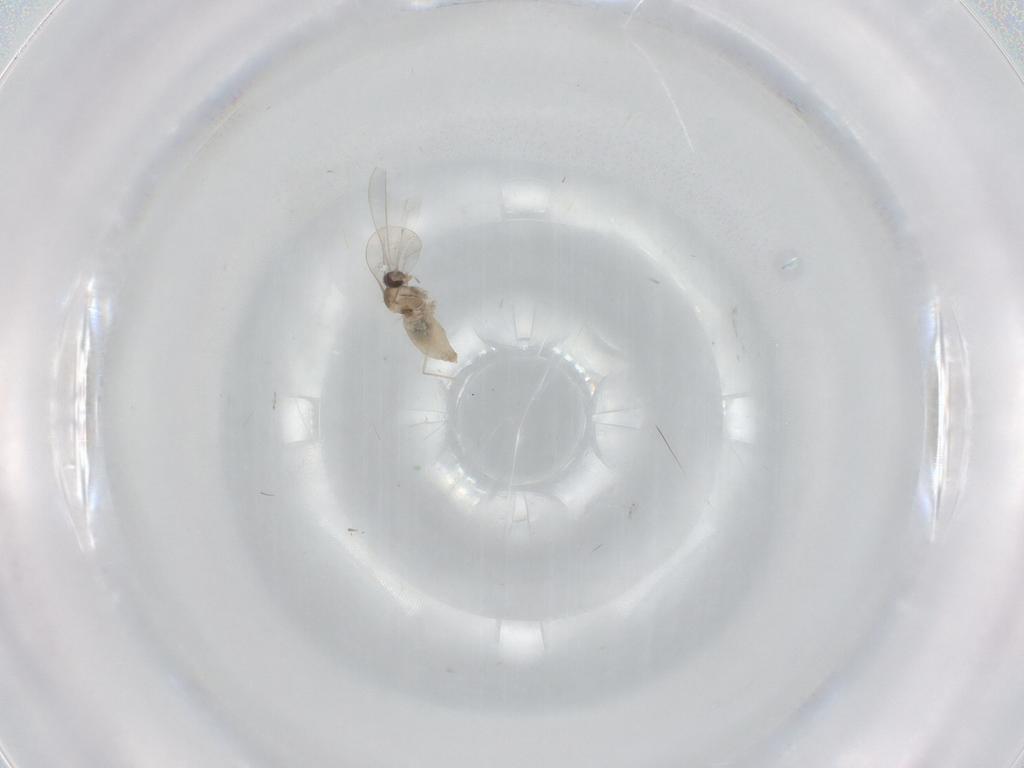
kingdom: Animalia
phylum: Arthropoda
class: Insecta
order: Diptera
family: Cecidomyiidae
